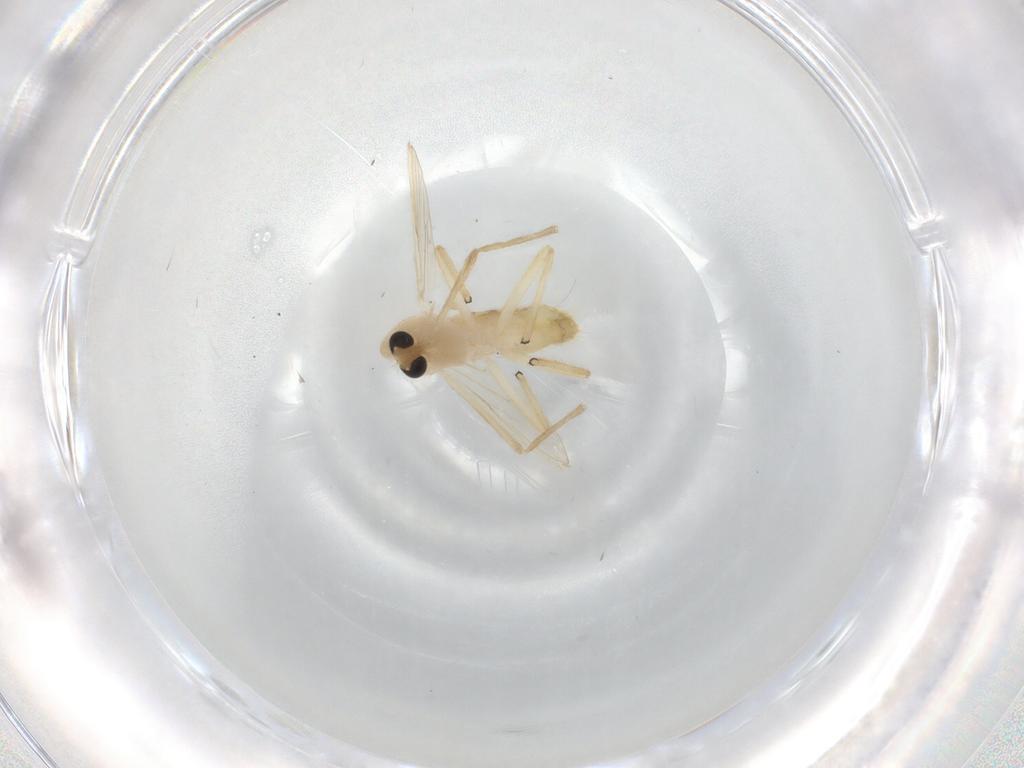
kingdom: Animalia
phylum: Arthropoda
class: Insecta
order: Diptera
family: Chironomidae
